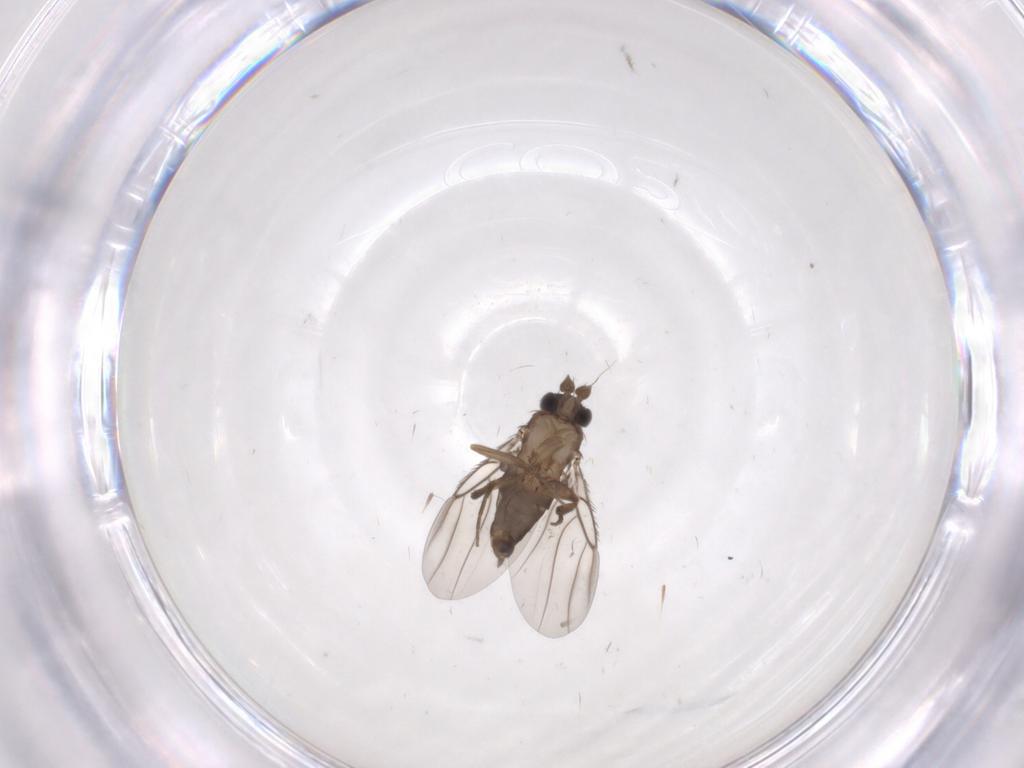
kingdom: Animalia
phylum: Arthropoda
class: Insecta
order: Diptera
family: Phoridae
